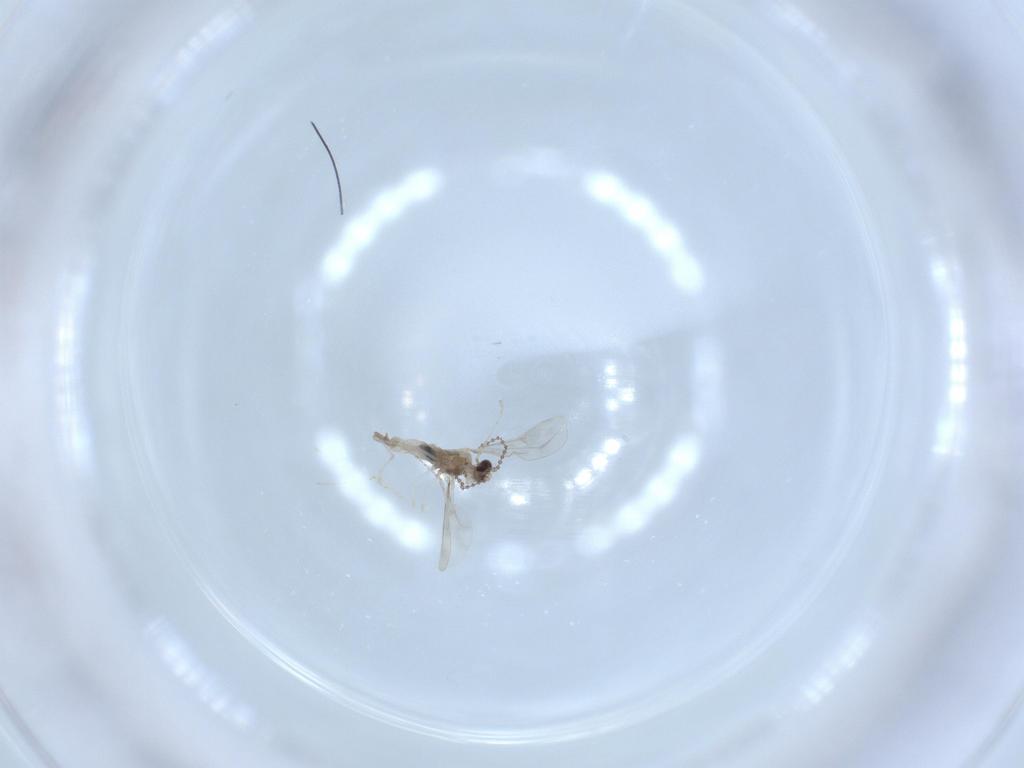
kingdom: Animalia
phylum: Arthropoda
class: Insecta
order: Diptera
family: Cecidomyiidae
